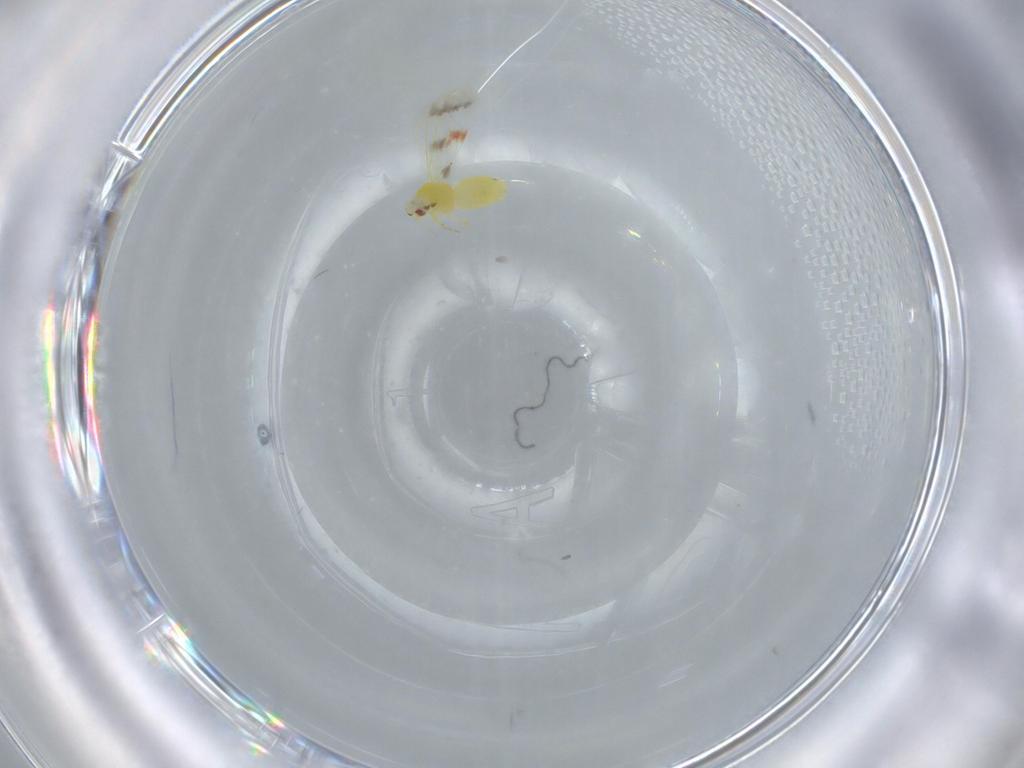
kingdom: Animalia
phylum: Arthropoda
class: Insecta
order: Hemiptera
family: Aleyrodidae
